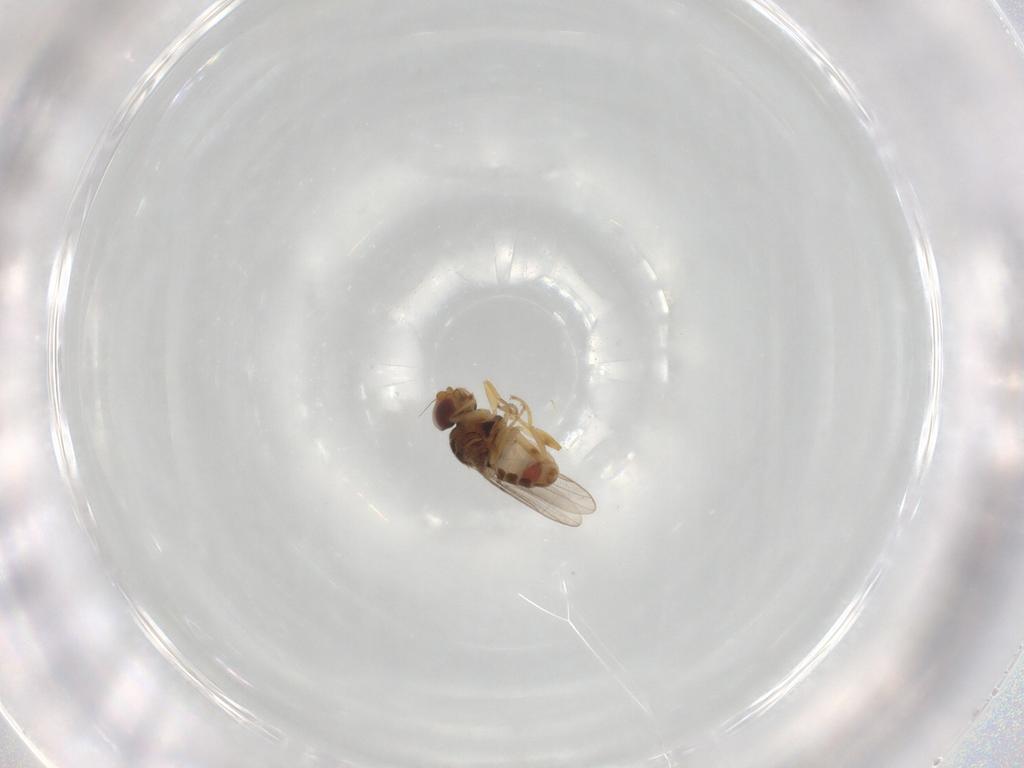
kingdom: Animalia
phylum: Arthropoda
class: Insecta
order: Diptera
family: Chloropidae
